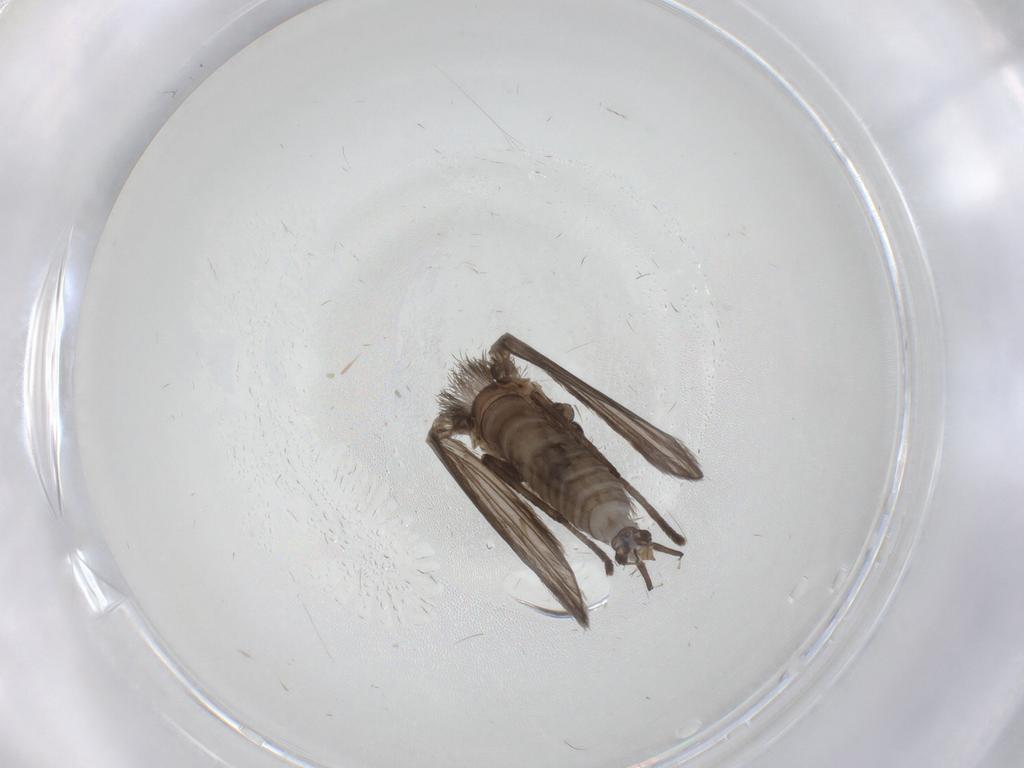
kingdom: Animalia
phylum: Arthropoda
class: Insecta
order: Diptera
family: Psychodidae
